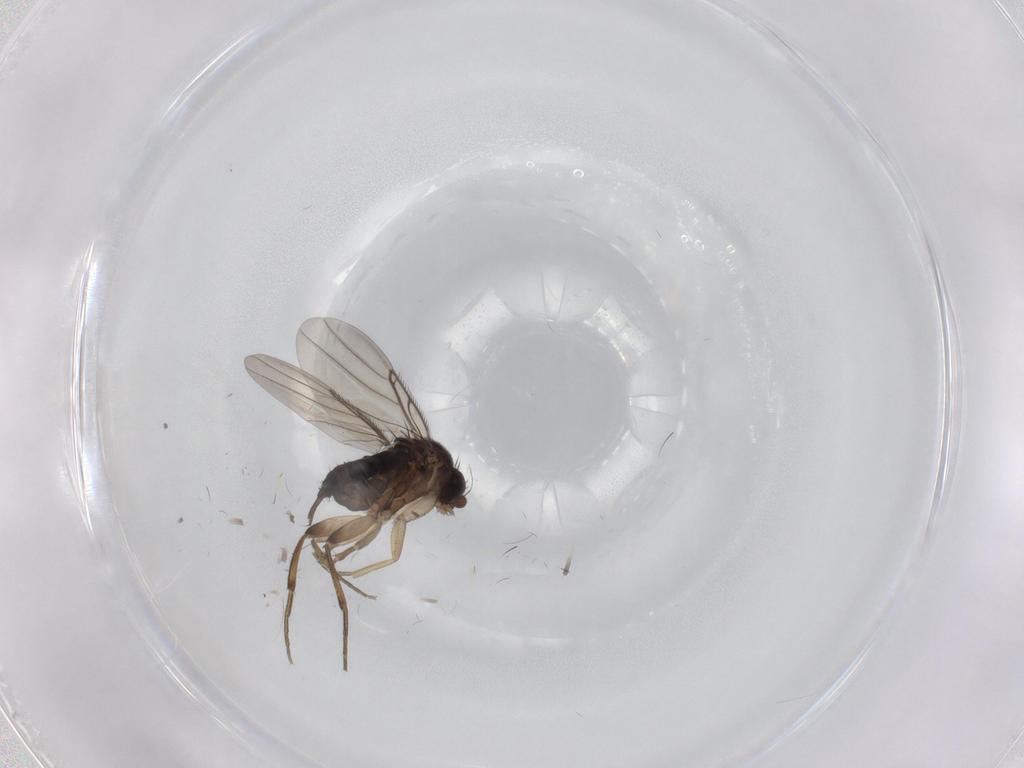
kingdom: Animalia
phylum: Arthropoda
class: Insecta
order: Diptera
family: Phoridae
